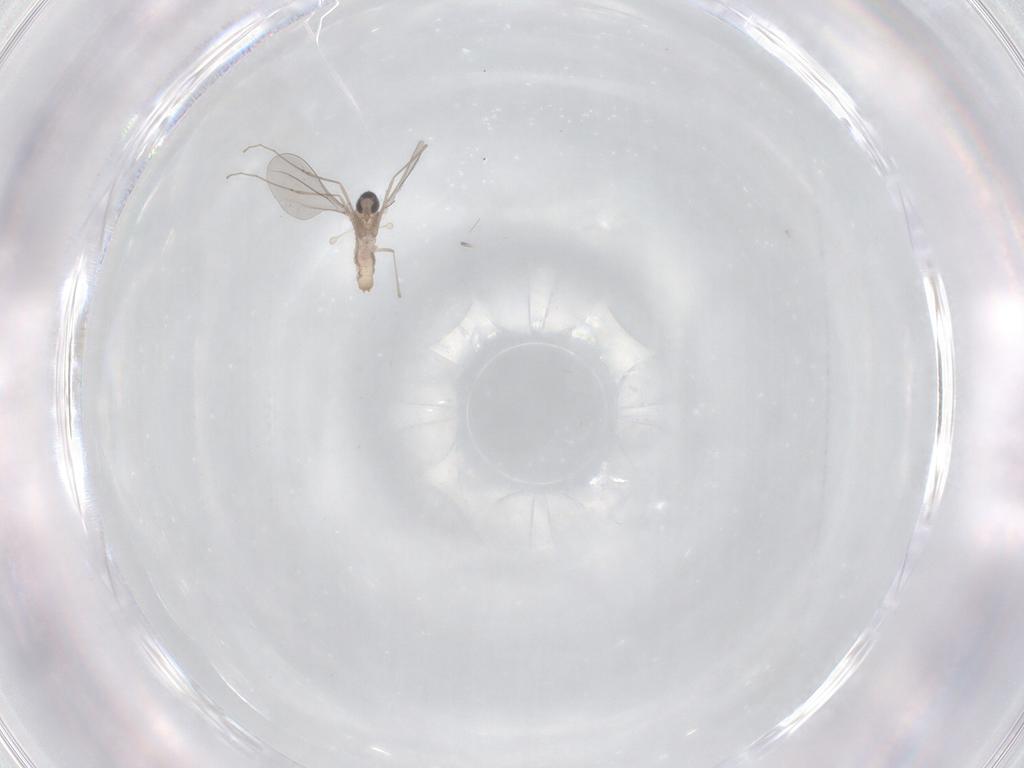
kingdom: Animalia
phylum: Arthropoda
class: Insecta
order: Diptera
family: Cecidomyiidae
